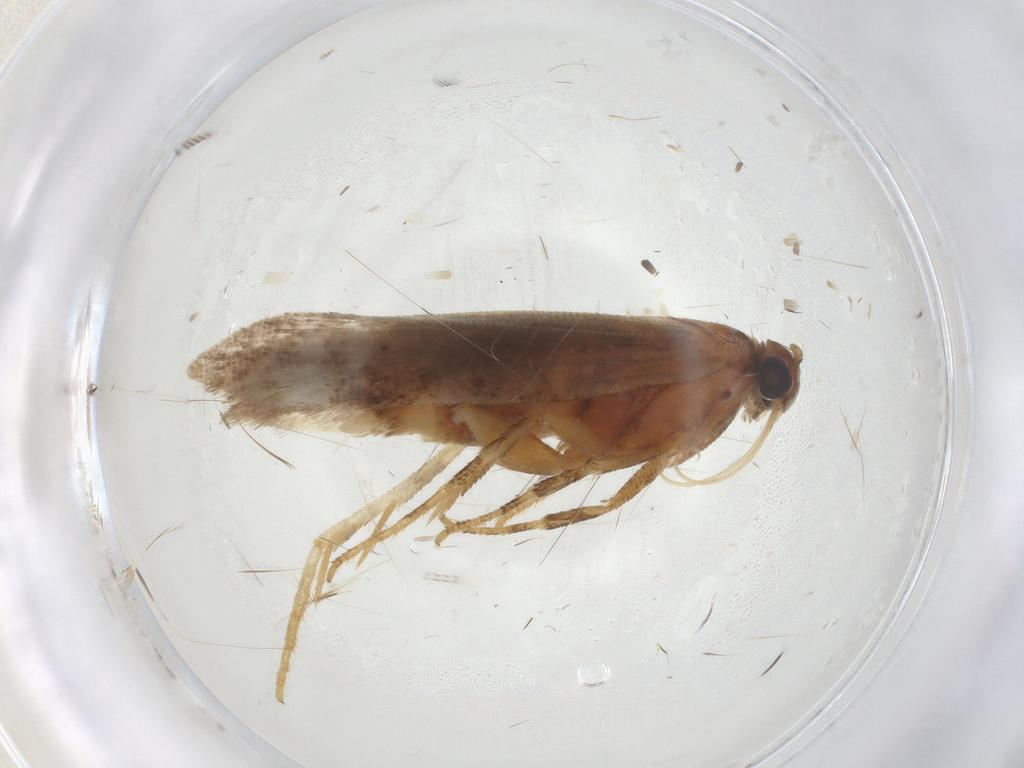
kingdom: Animalia
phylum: Arthropoda
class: Insecta
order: Lepidoptera
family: Gelechiidae
